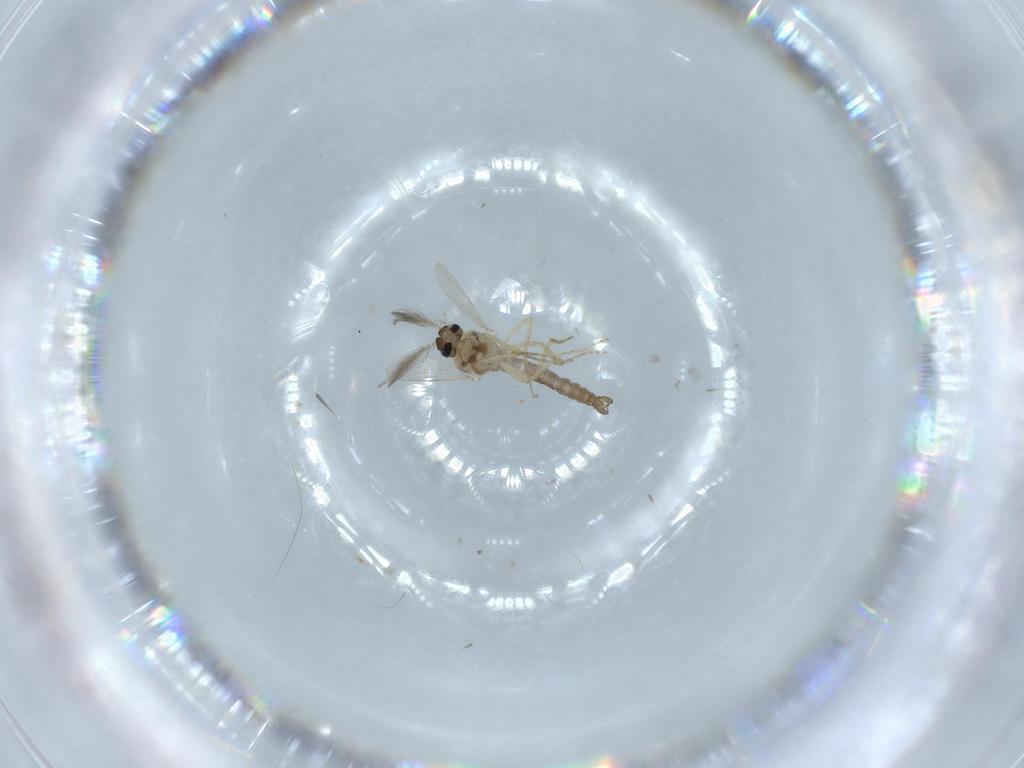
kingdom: Animalia
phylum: Arthropoda
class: Insecta
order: Diptera
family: Ceratopogonidae
